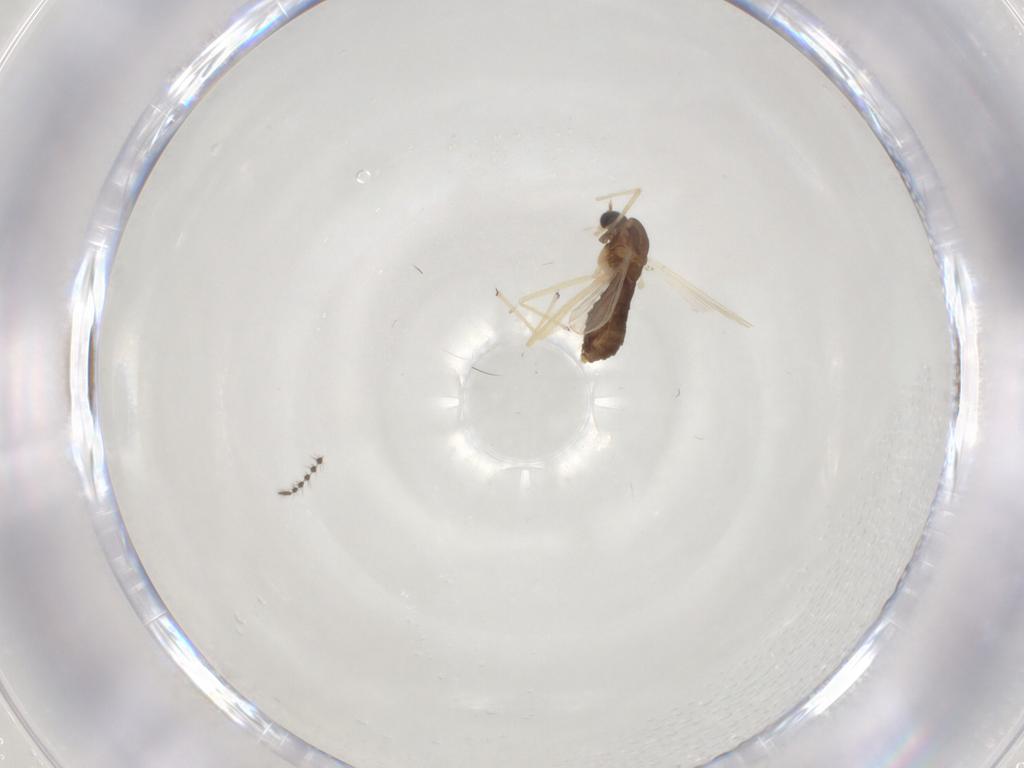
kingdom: Animalia
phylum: Arthropoda
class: Insecta
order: Diptera
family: Chironomidae
